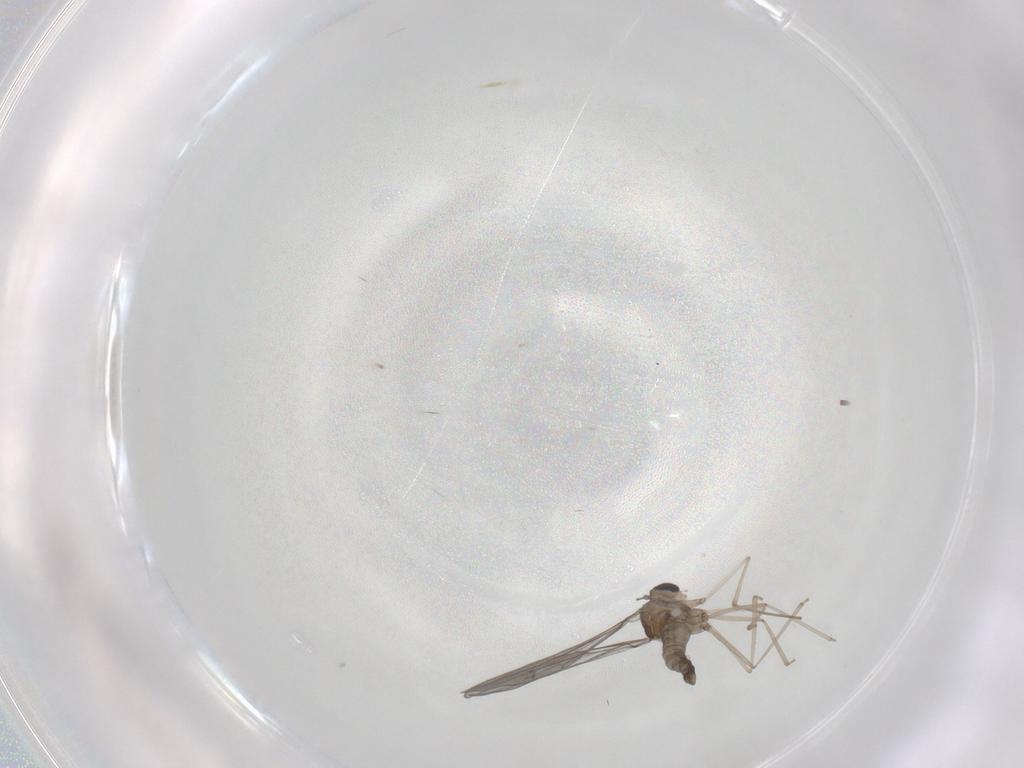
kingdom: Animalia
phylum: Arthropoda
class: Insecta
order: Diptera
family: Cecidomyiidae
